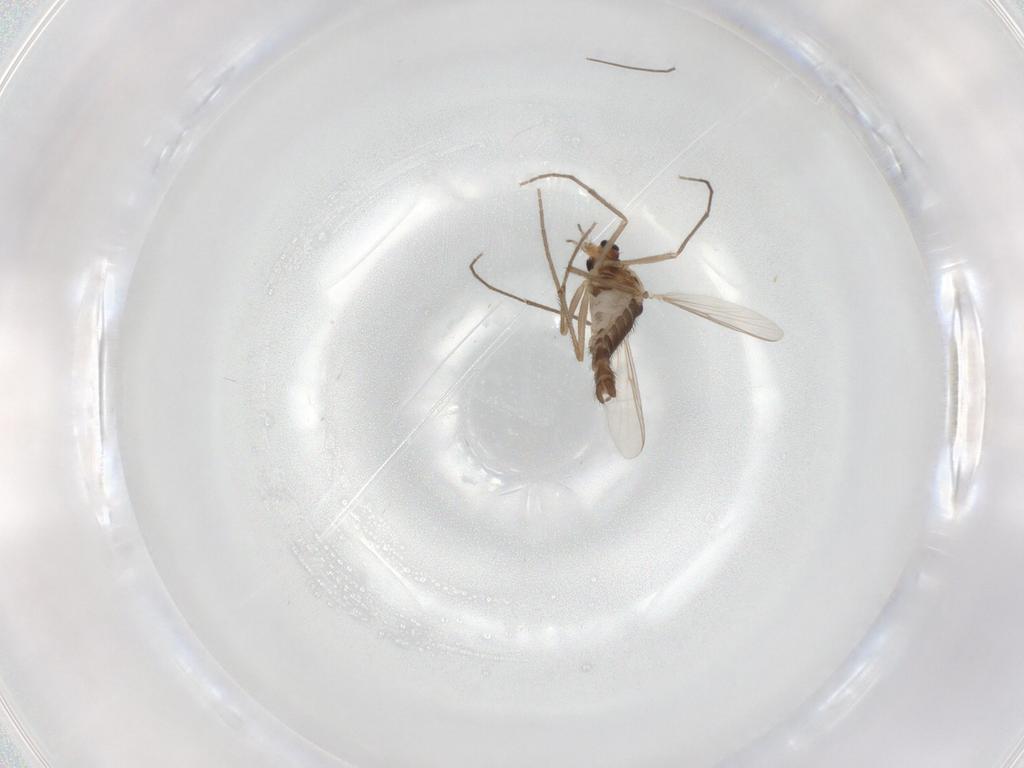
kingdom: Animalia
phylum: Arthropoda
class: Insecta
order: Diptera
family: Chironomidae
